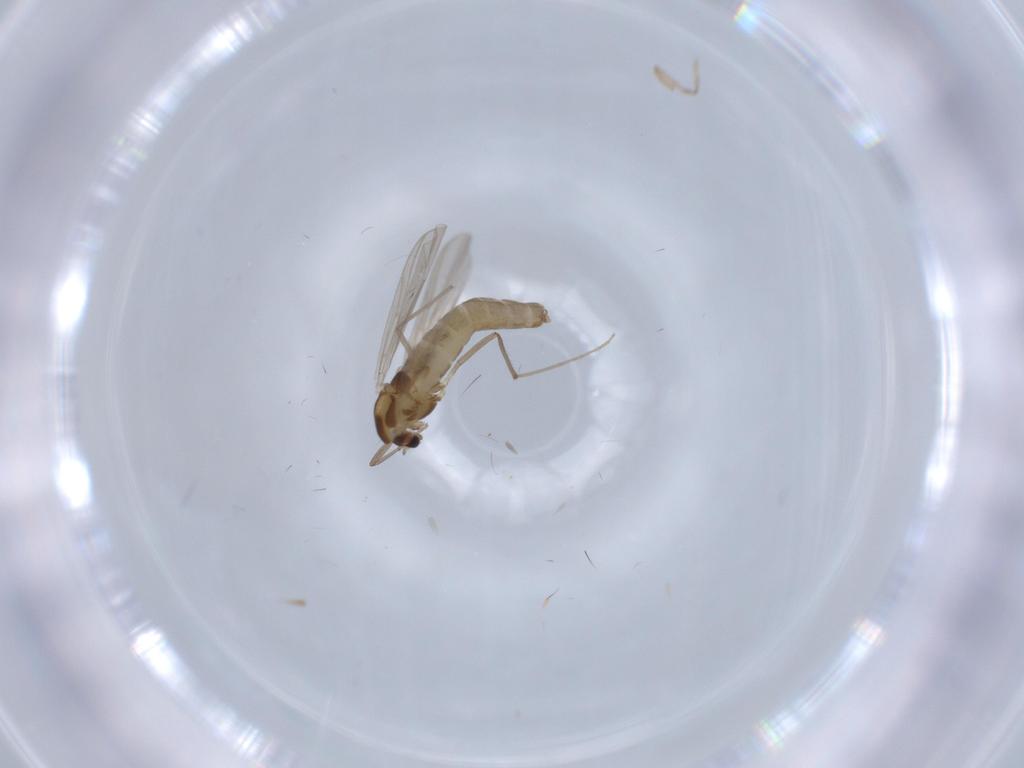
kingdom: Animalia
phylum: Arthropoda
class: Insecta
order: Diptera
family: Chironomidae
